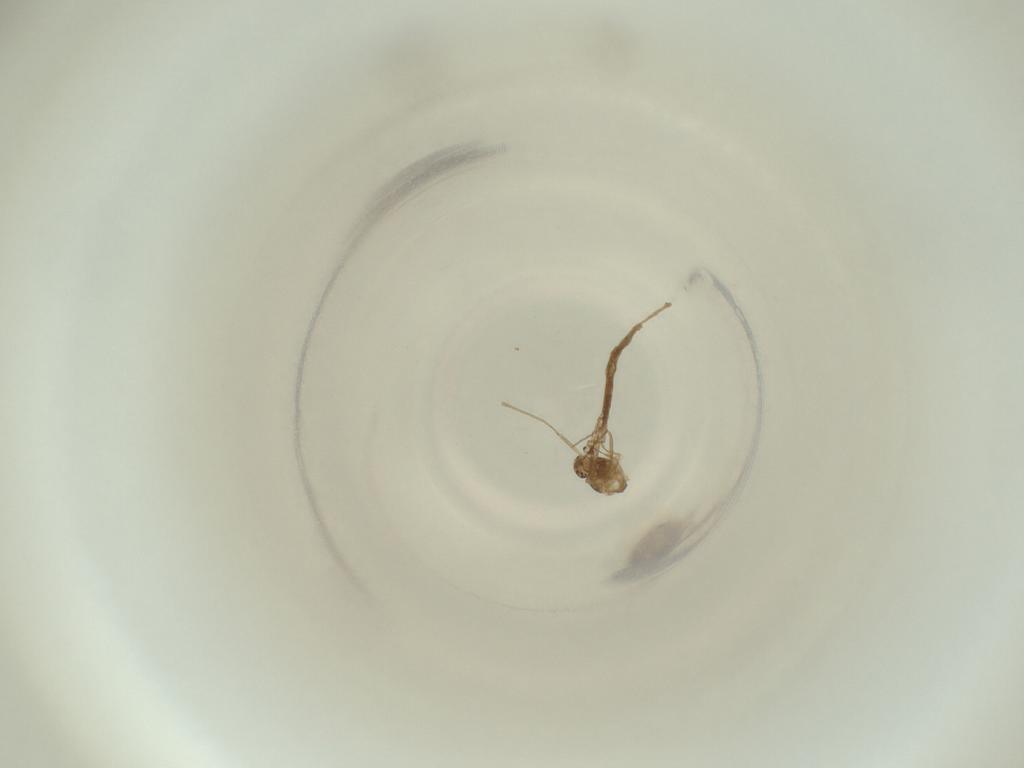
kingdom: Animalia
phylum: Arthropoda
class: Insecta
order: Diptera
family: Cecidomyiidae
